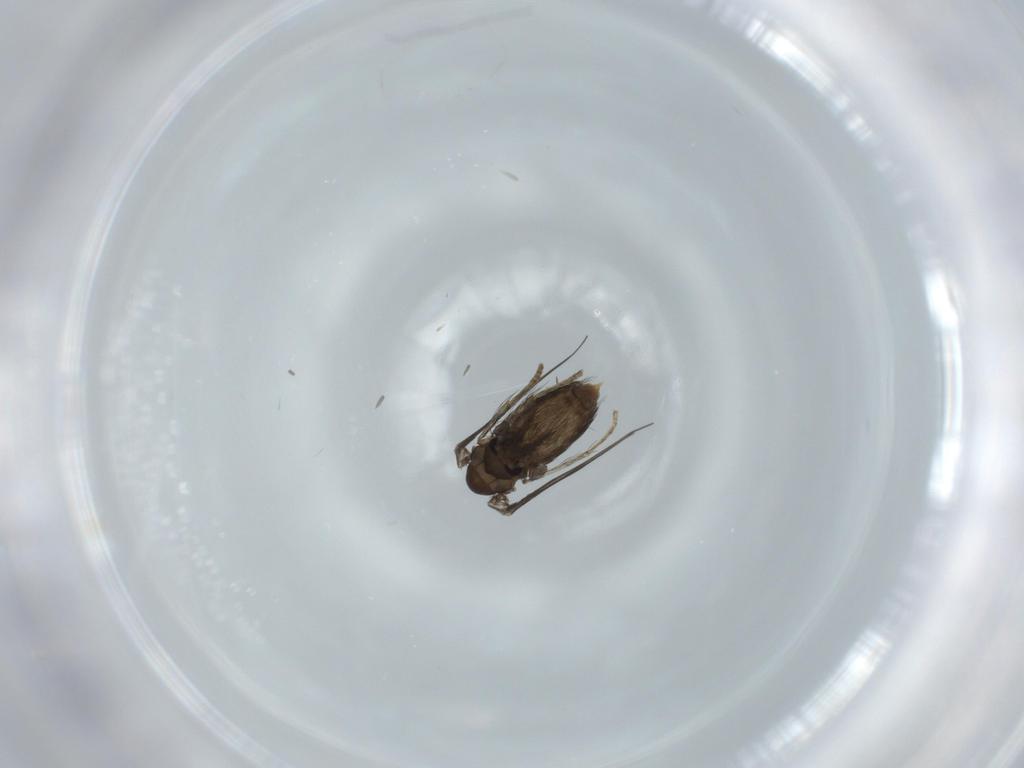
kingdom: Animalia
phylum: Arthropoda
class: Insecta
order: Diptera
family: Psychodidae
